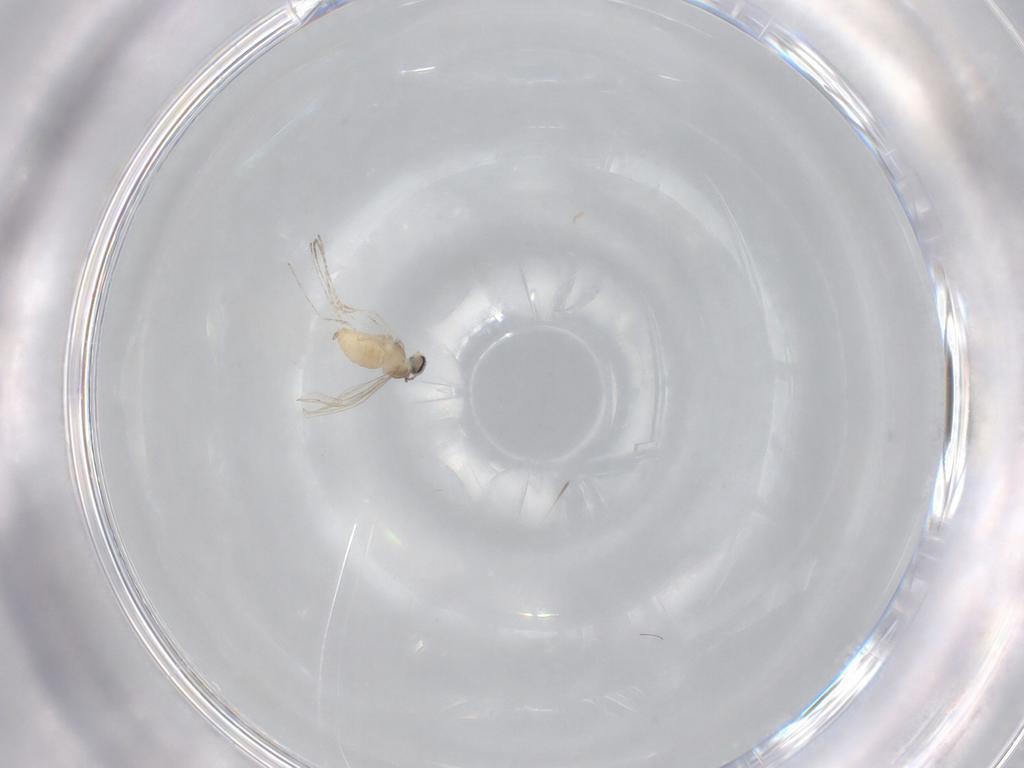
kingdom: Animalia
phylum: Arthropoda
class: Insecta
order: Diptera
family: Cecidomyiidae
